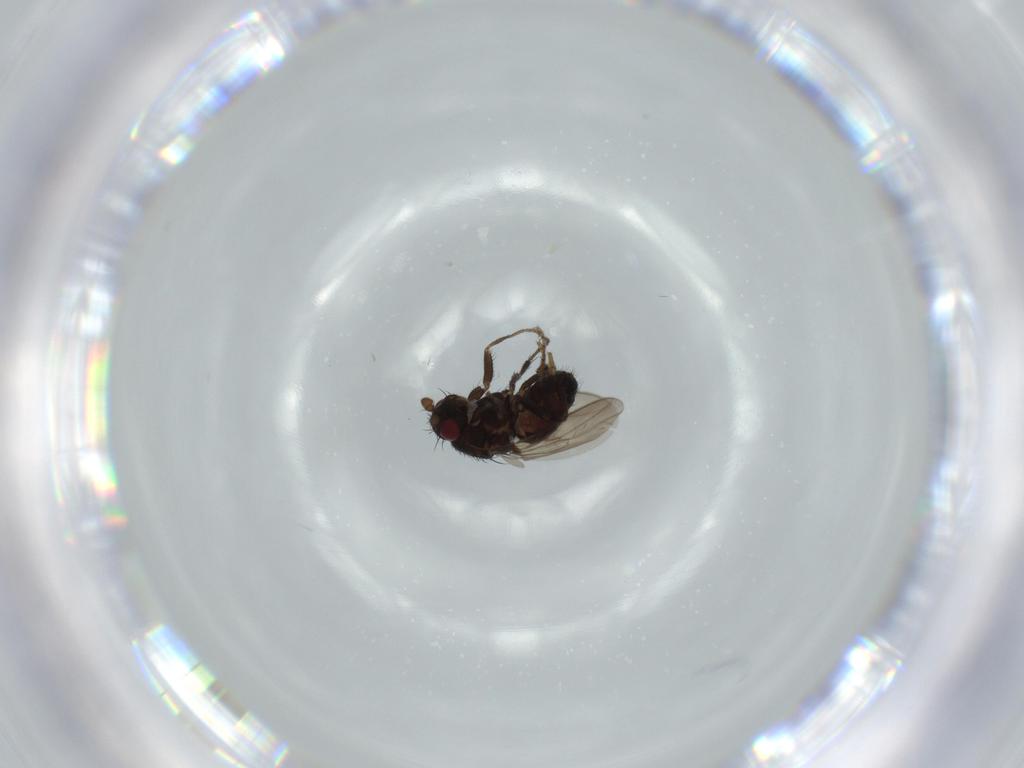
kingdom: Animalia
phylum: Arthropoda
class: Insecta
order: Diptera
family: Sphaeroceridae
